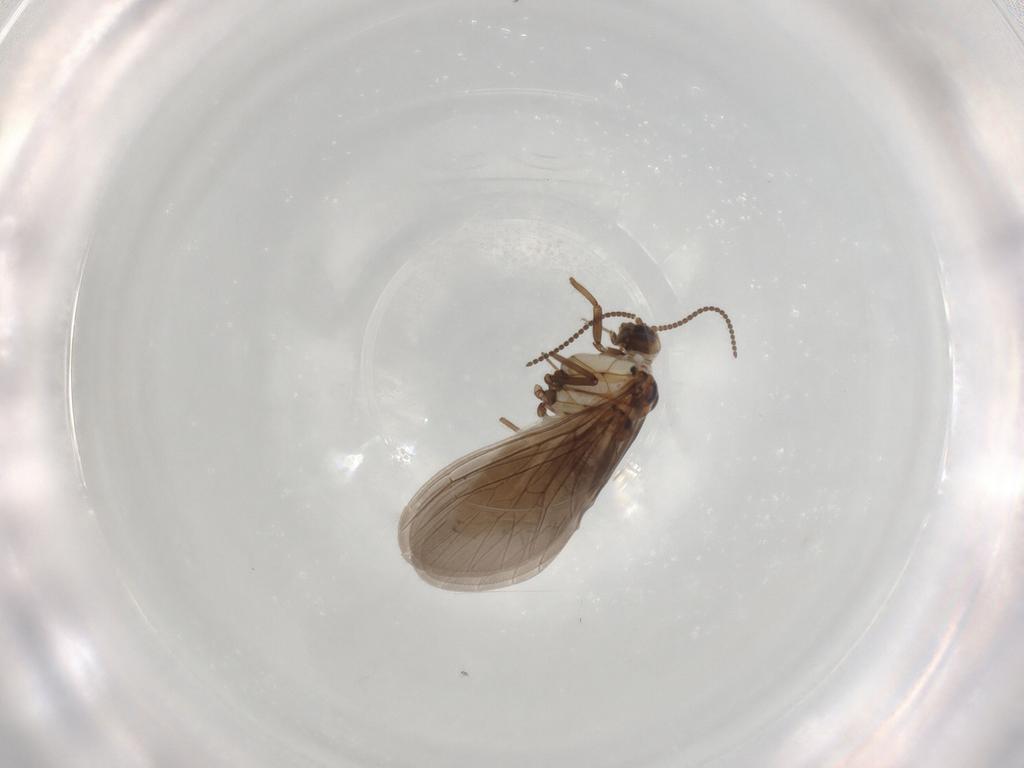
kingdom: Animalia
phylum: Arthropoda
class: Insecta
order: Neuroptera
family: Coniopterygidae
